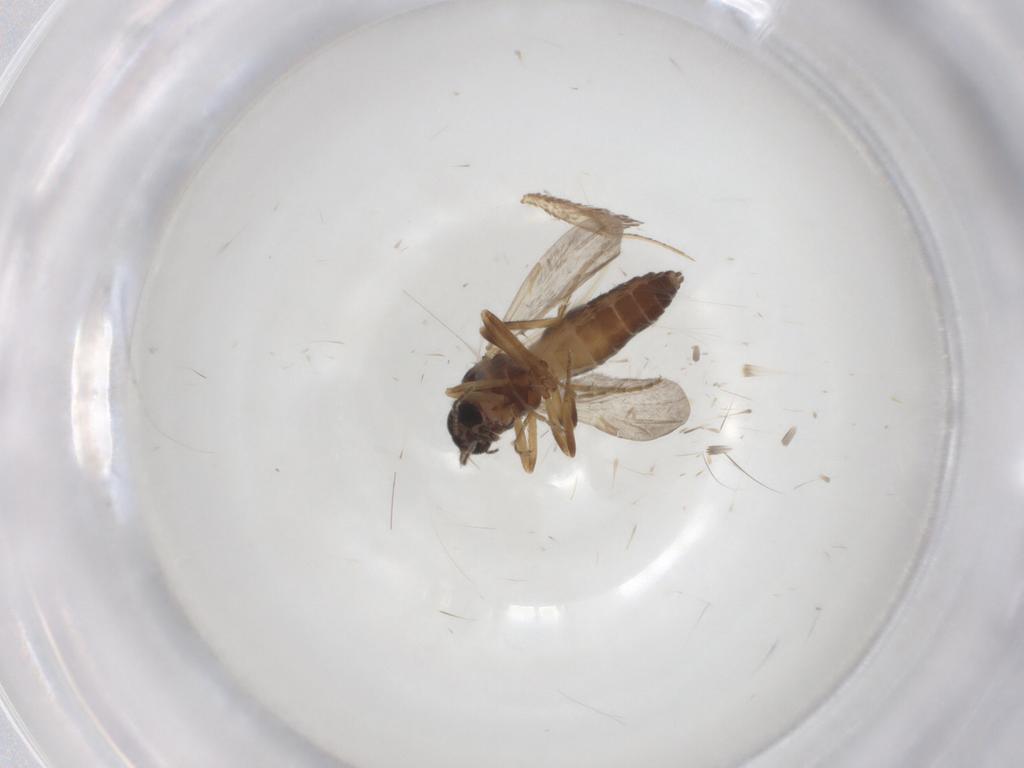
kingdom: Animalia
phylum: Arthropoda
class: Insecta
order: Diptera
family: Ceratopogonidae
